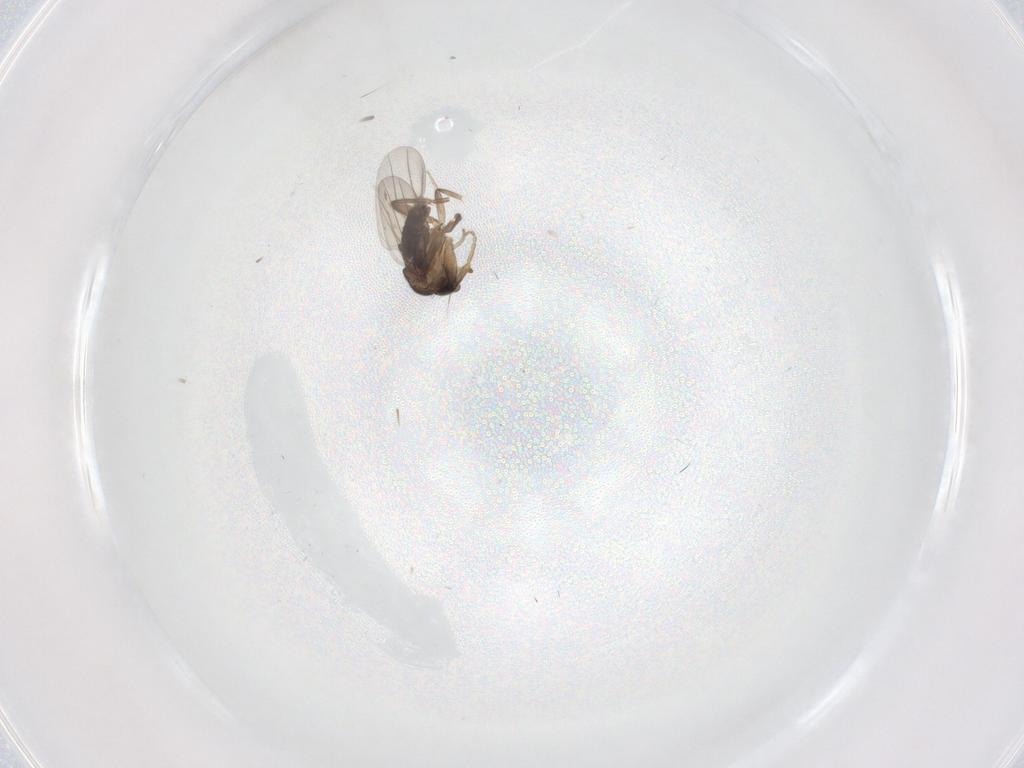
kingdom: Animalia
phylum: Arthropoda
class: Insecta
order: Diptera
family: Phoridae
